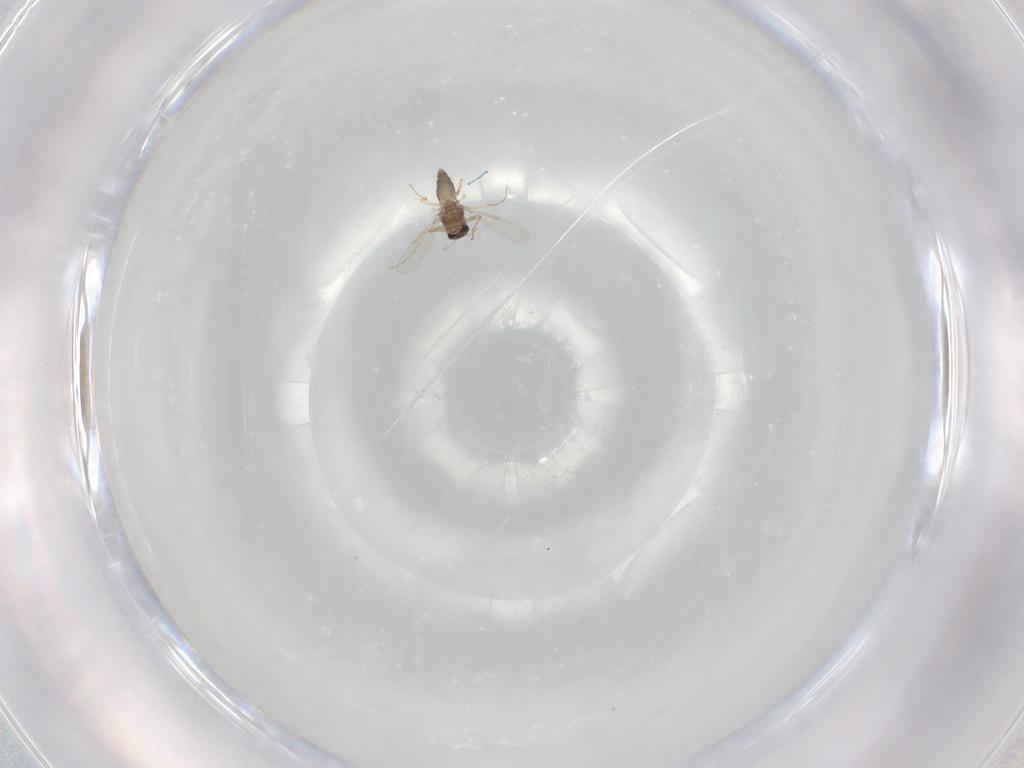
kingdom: Animalia
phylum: Arthropoda
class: Insecta
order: Diptera
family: Chironomidae
